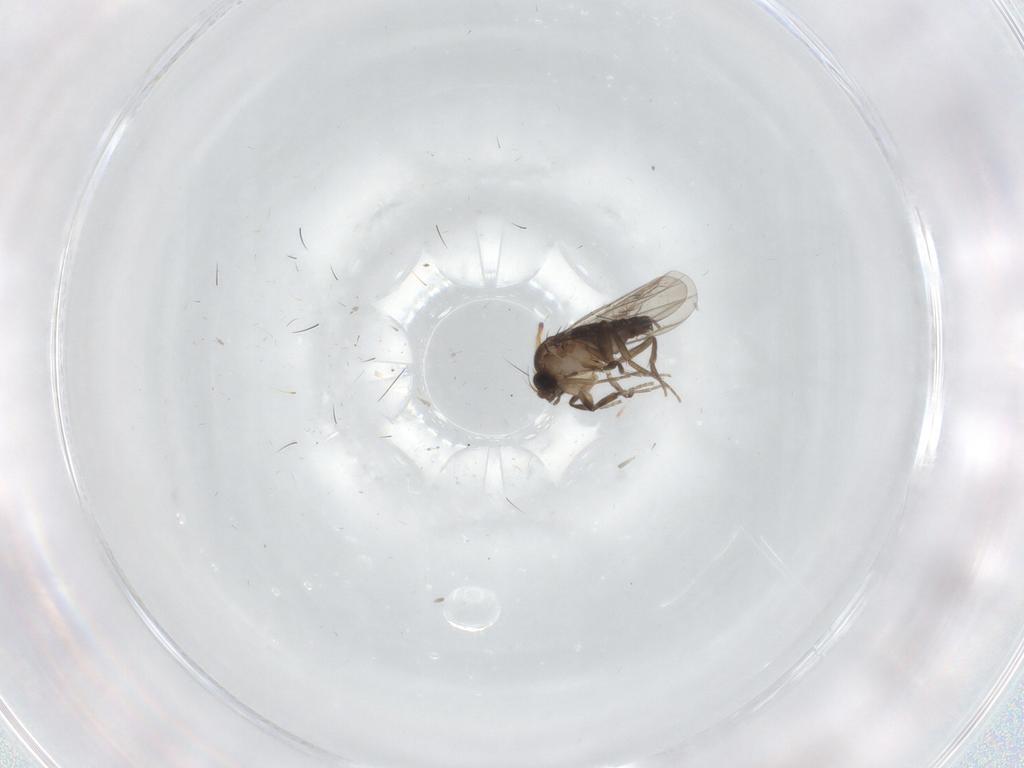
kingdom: Animalia
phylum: Arthropoda
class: Insecta
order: Diptera
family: Phoridae
